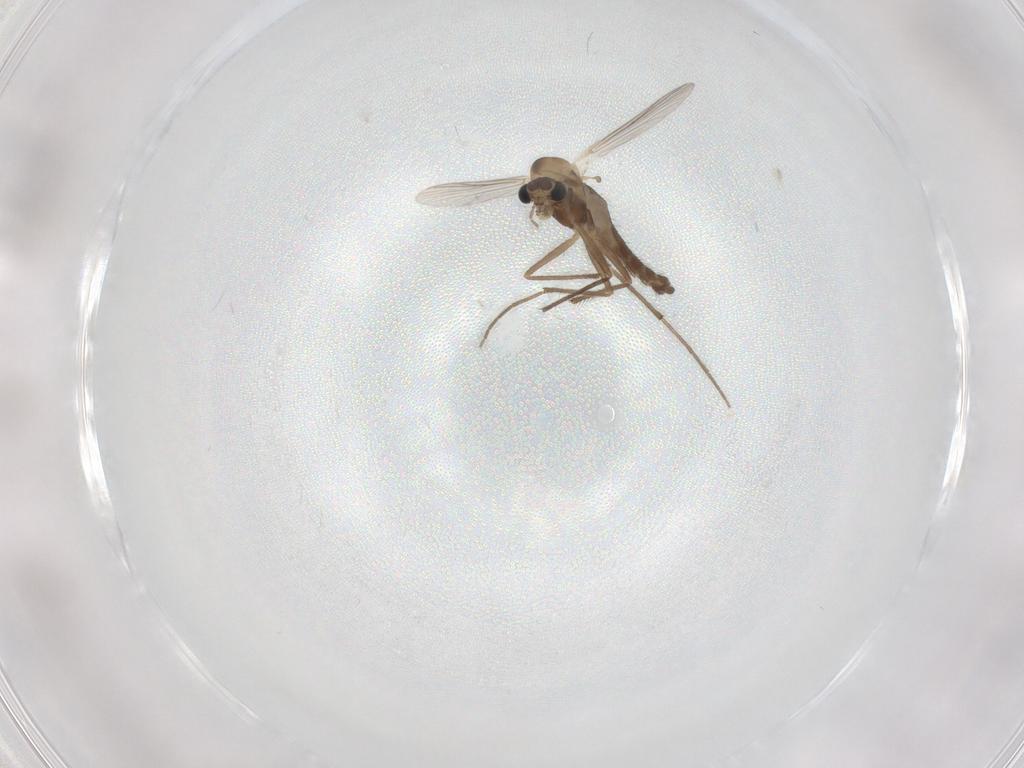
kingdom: Animalia
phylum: Arthropoda
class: Insecta
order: Diptera
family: Chironomidae
